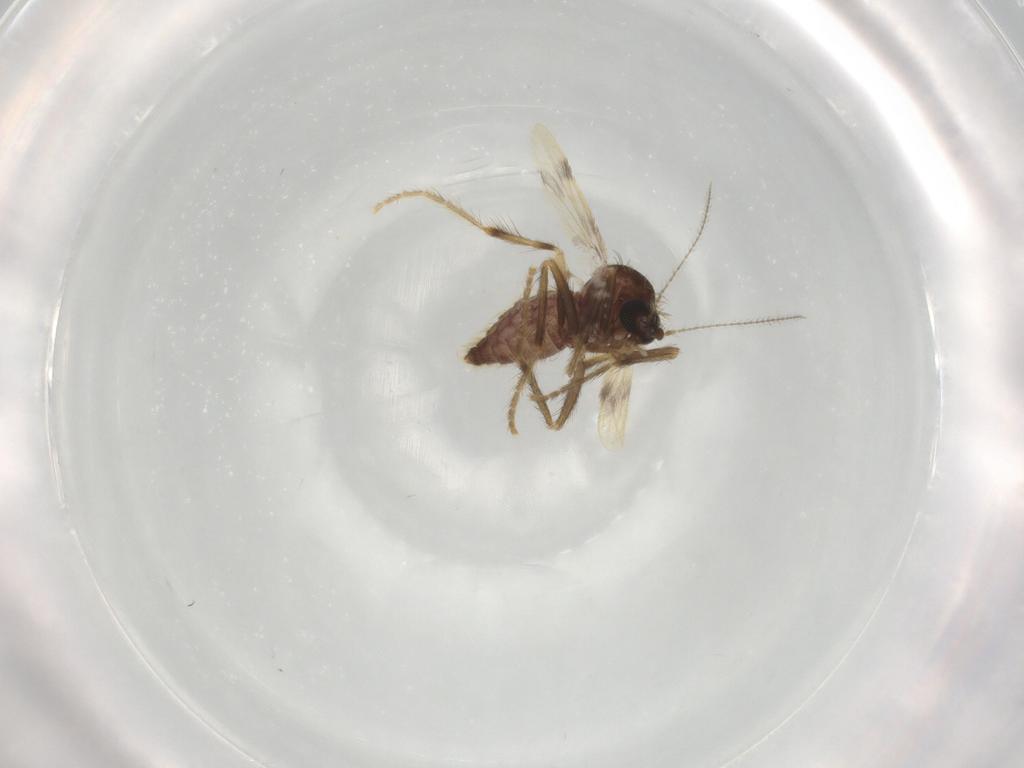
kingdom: Animalia
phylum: Arthropoda
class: Insecta
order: Diptera
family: Corethrellidae
